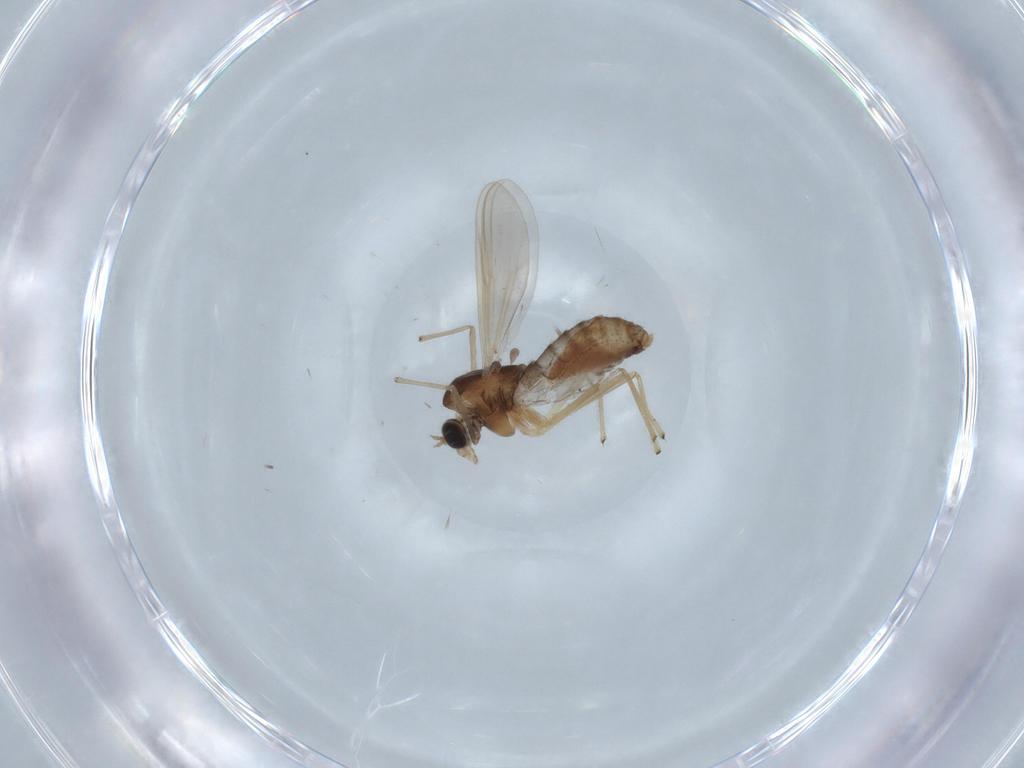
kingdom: Animalia
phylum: Arthropoda
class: Insecta
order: Diptera
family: Chironomidae
